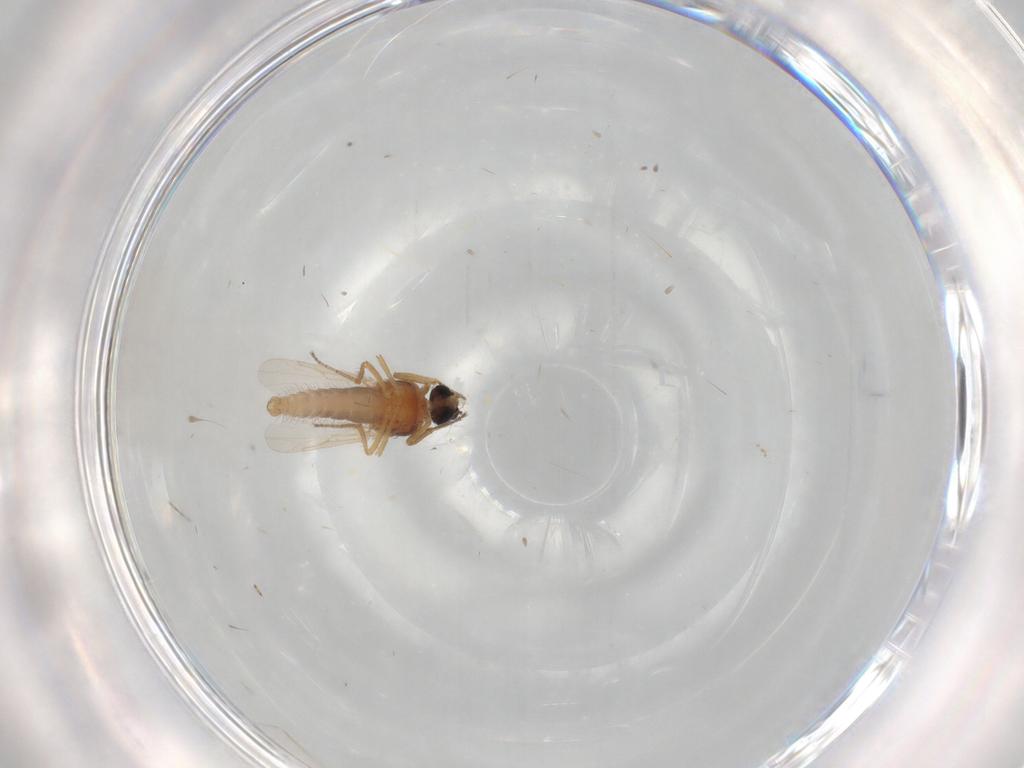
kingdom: Animalia
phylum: Arthropoda
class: Insecta
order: Diptera
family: Cecidomyiidae
